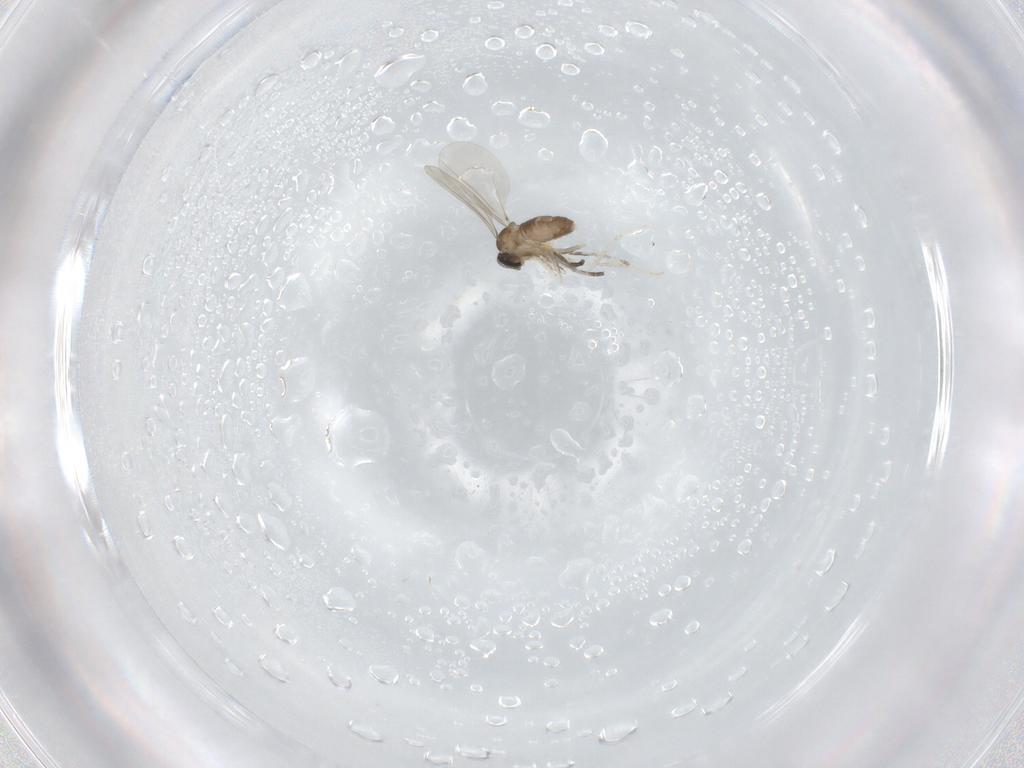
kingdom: Animalia
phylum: Arthropoda
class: Insecta
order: Diptera
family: Cecidomyiidae
